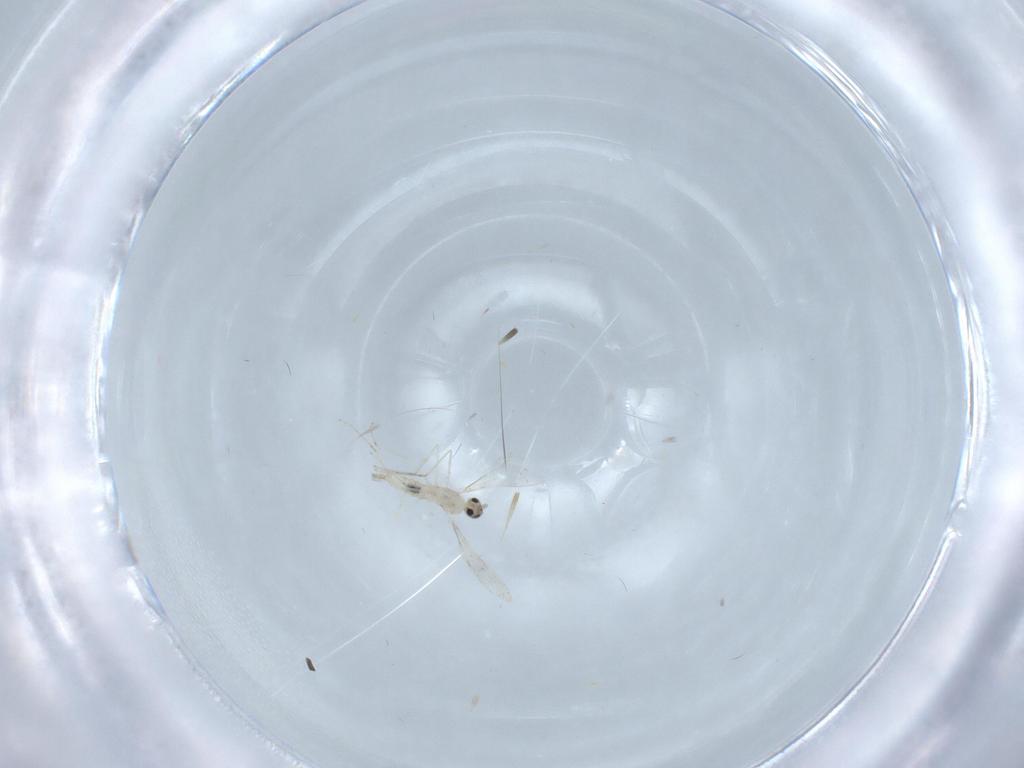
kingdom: Animalia
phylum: Arthropoda
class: Insecta
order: Diptera
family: Cecidomyiidae
